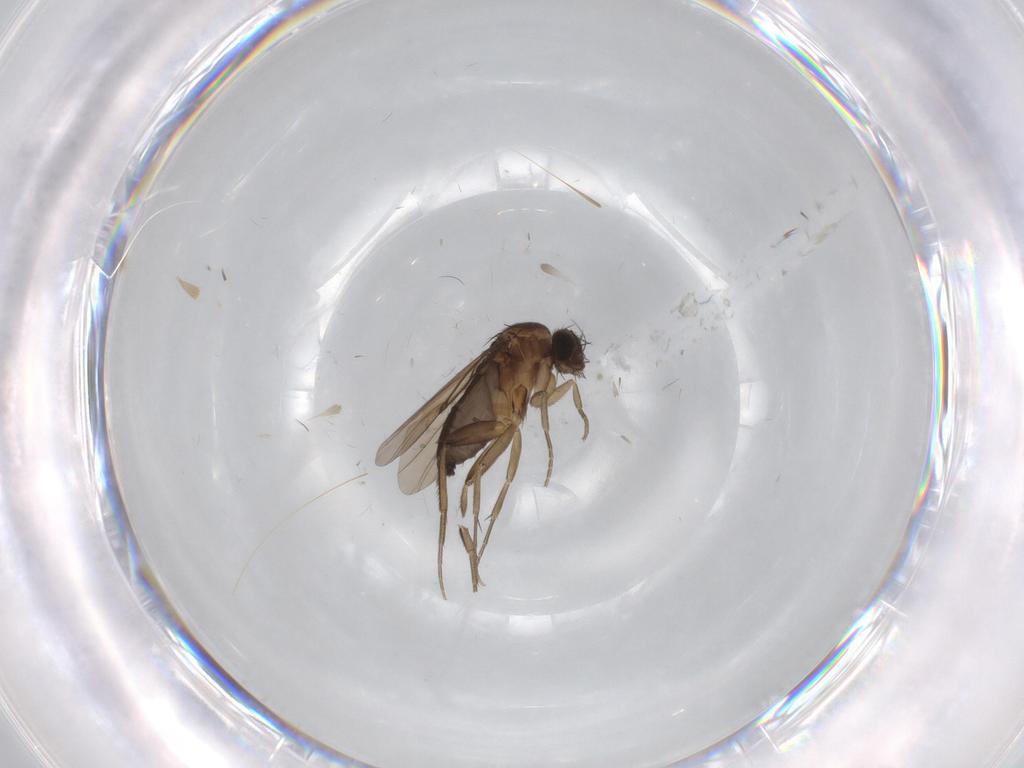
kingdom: Animalia
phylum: Arthropoda
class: Insecta
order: Diptera
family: Phoridae
